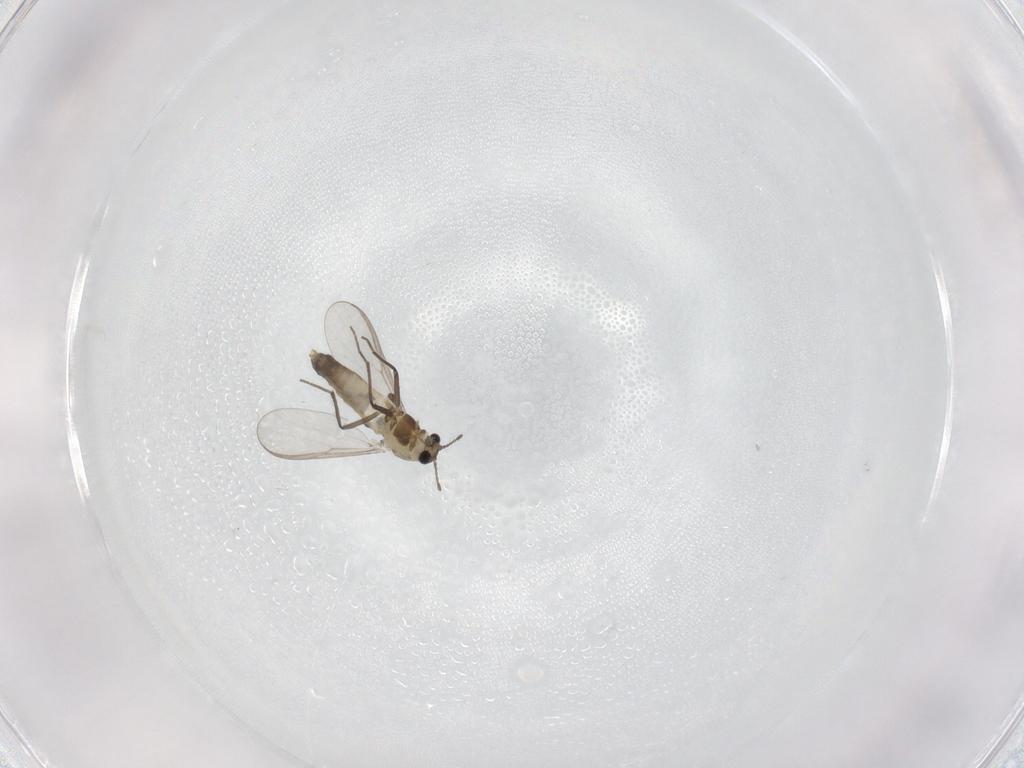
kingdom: Animalia
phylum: Arthropoda
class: Insecta
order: Diptera
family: Chironomidae
